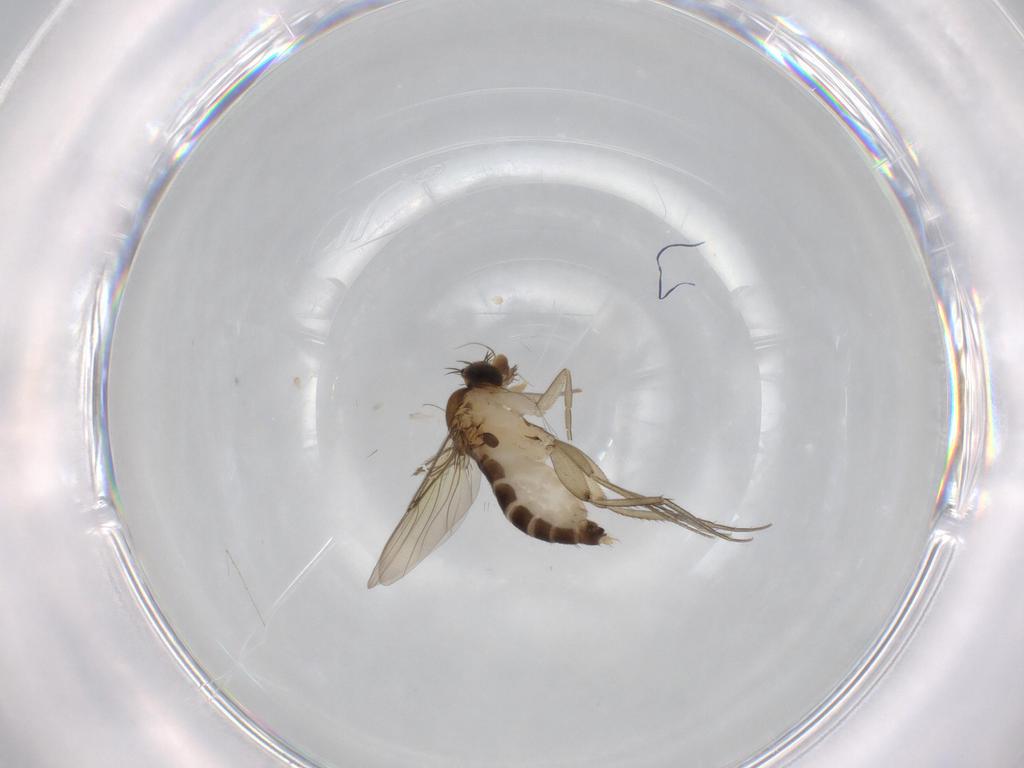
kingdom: Animalia
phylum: Arthropoda
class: Insecta
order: Diptera
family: Phoridae
